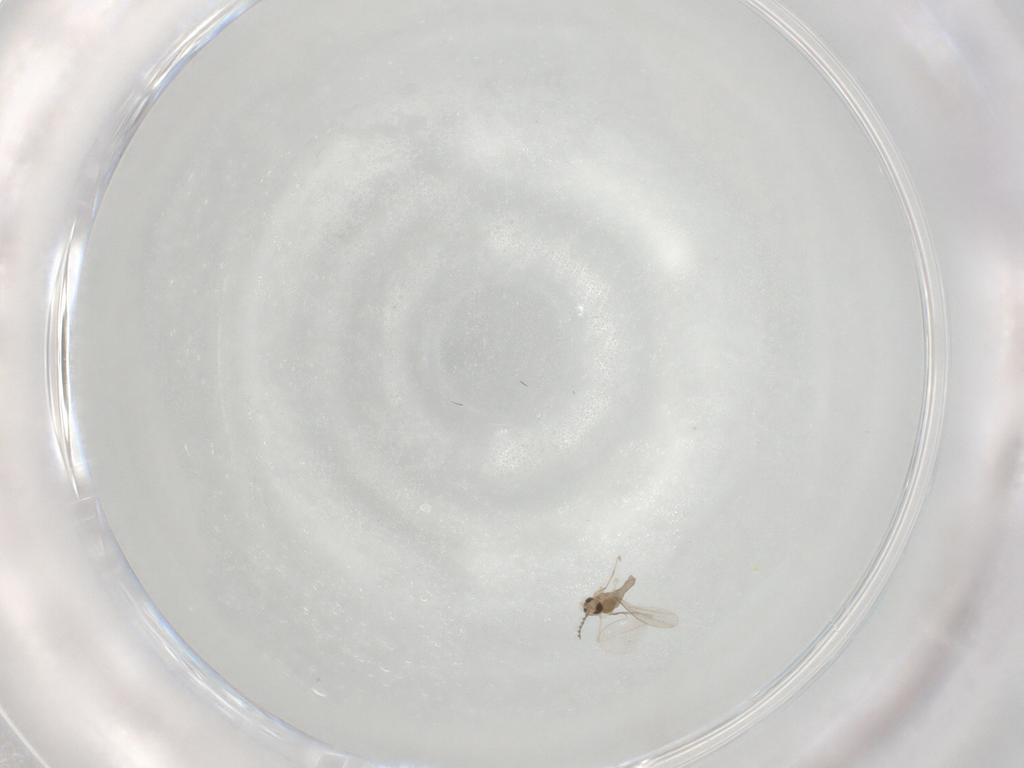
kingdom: Animalia
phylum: Arthropoda
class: Insecta
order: Diptera
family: Cecidomyiidae
